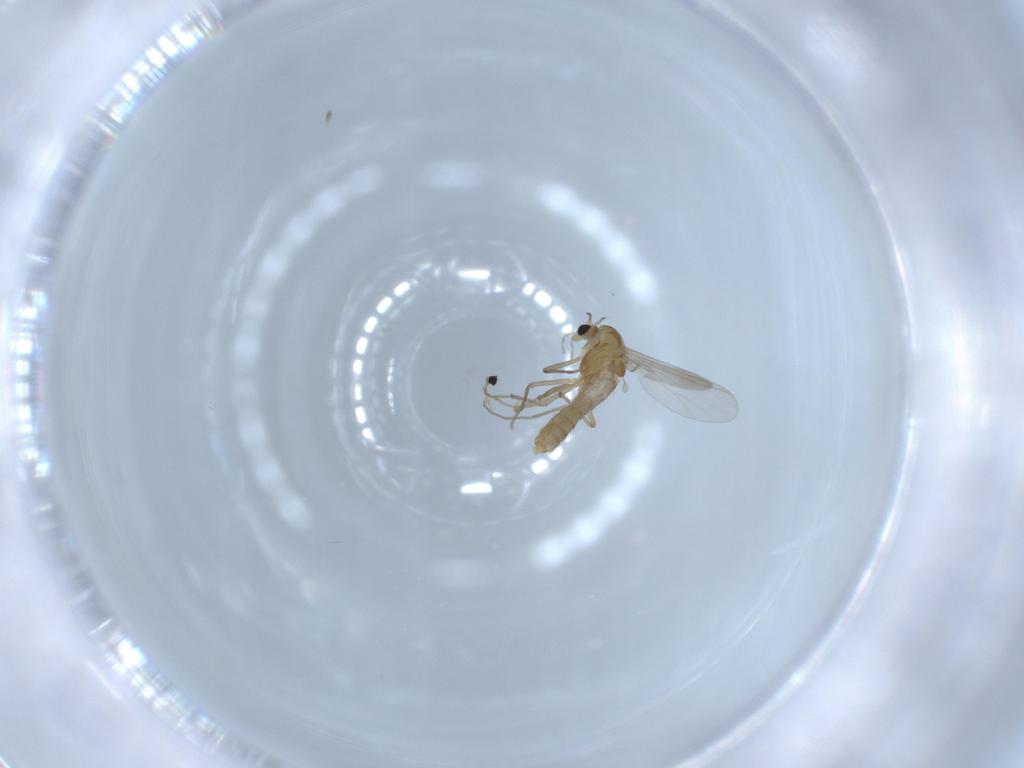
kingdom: Animalia
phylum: Arthropoda
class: Insecta
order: Diptera
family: Chironomidae
